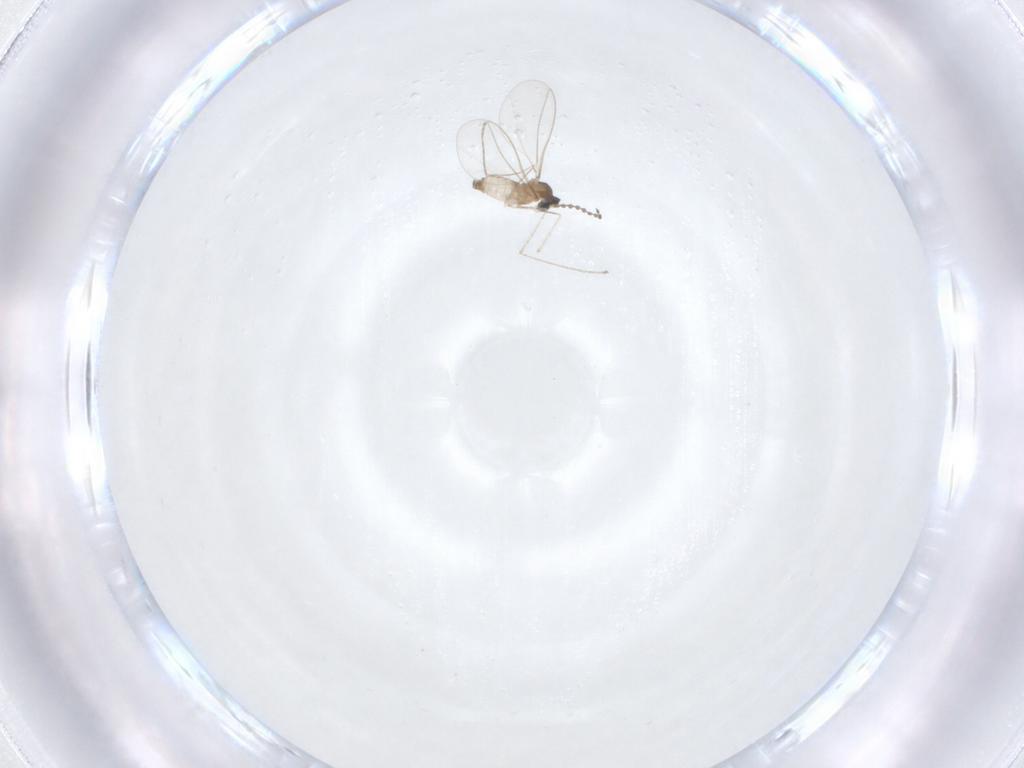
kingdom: Animalia
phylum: Arthropoda
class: Insecta
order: Diptera
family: Cecidomyiidae
